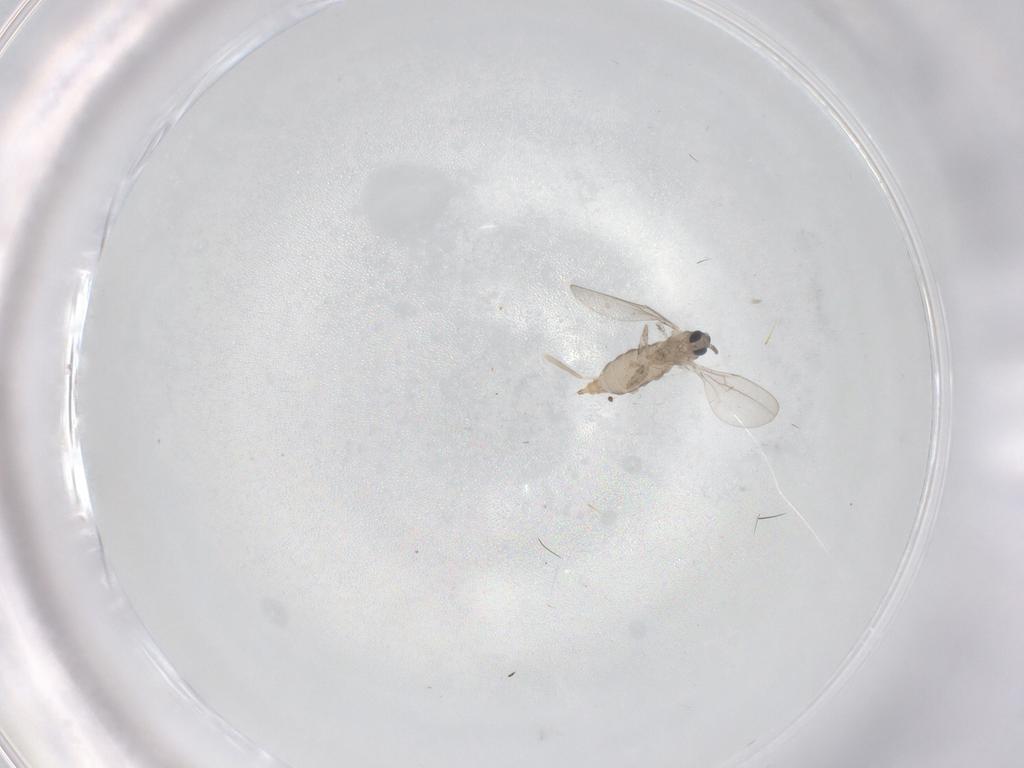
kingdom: Animalia
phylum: Arthropoda
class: Insecta
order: Diptera
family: Cecidomyiidae
